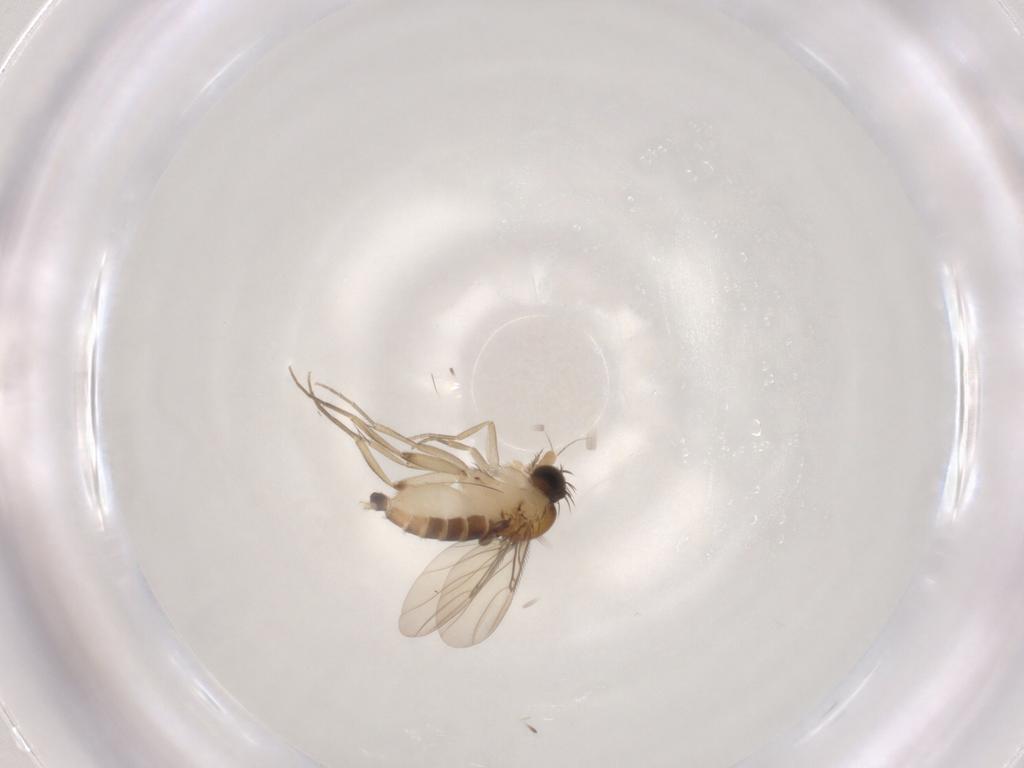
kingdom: Animalia
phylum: Arthropoda
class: Insecta
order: Diptera
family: Phoridae
